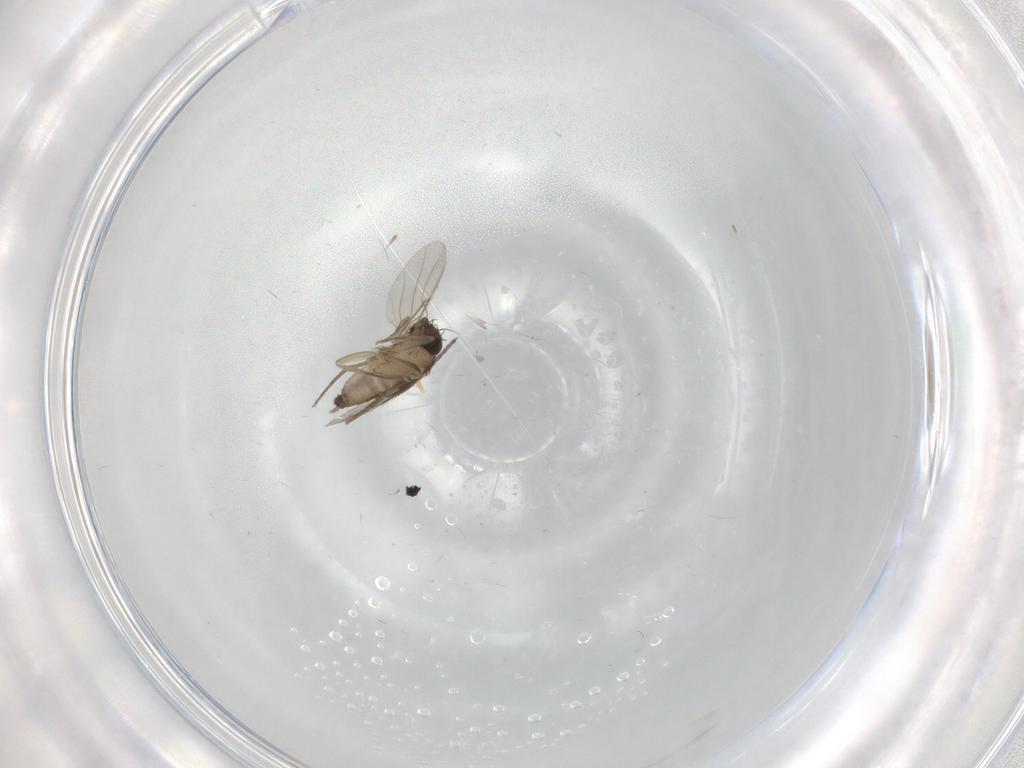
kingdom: Animalia
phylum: Arthropoda
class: Insecta
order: Diptera
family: Phoridae
